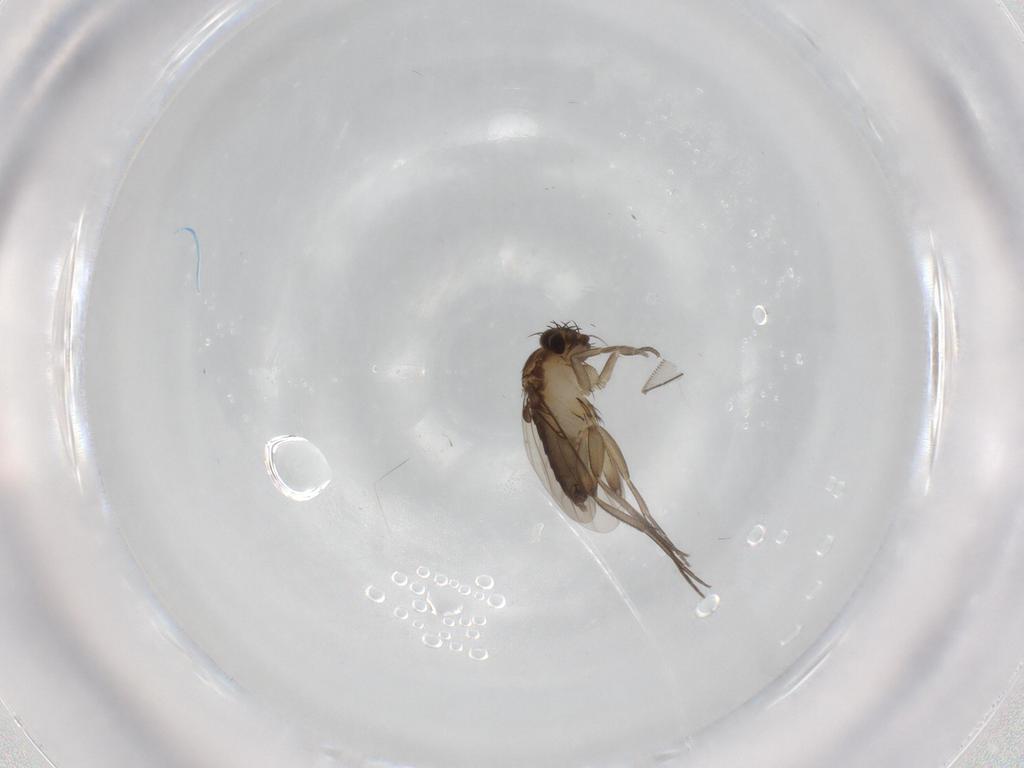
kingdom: Animalia
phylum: Arthropoda
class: Insecta
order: Diptera
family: Phoridae
